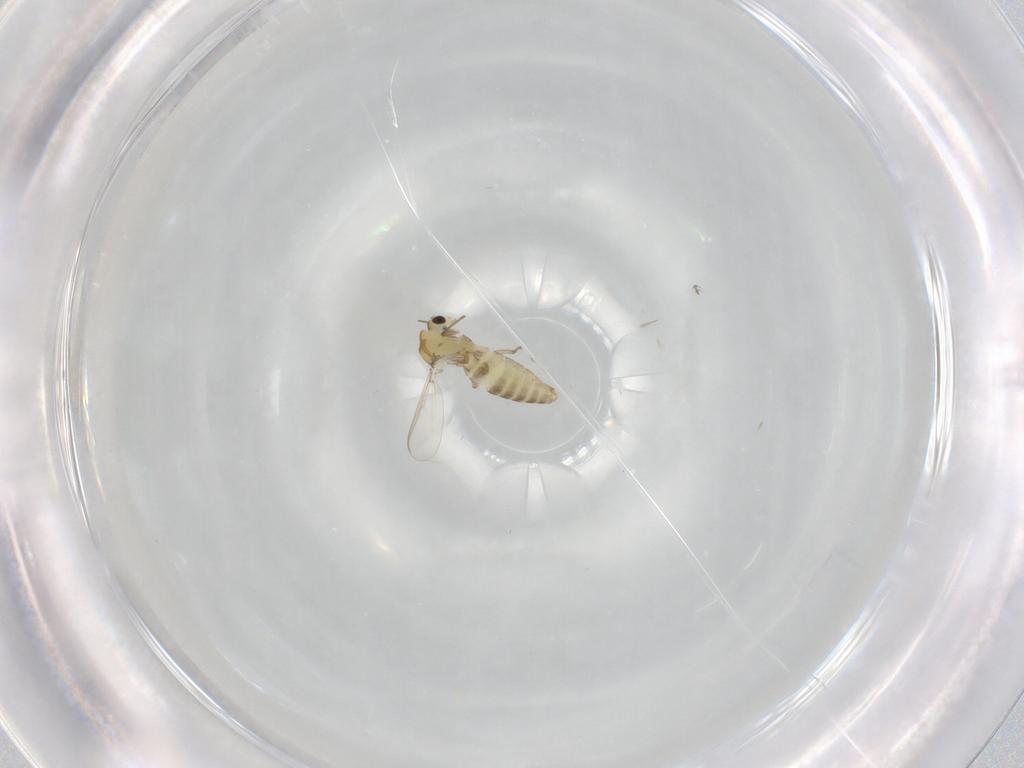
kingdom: Animalia
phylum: Arthropoda
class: Insecta
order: Diptera
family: Chironomidae
